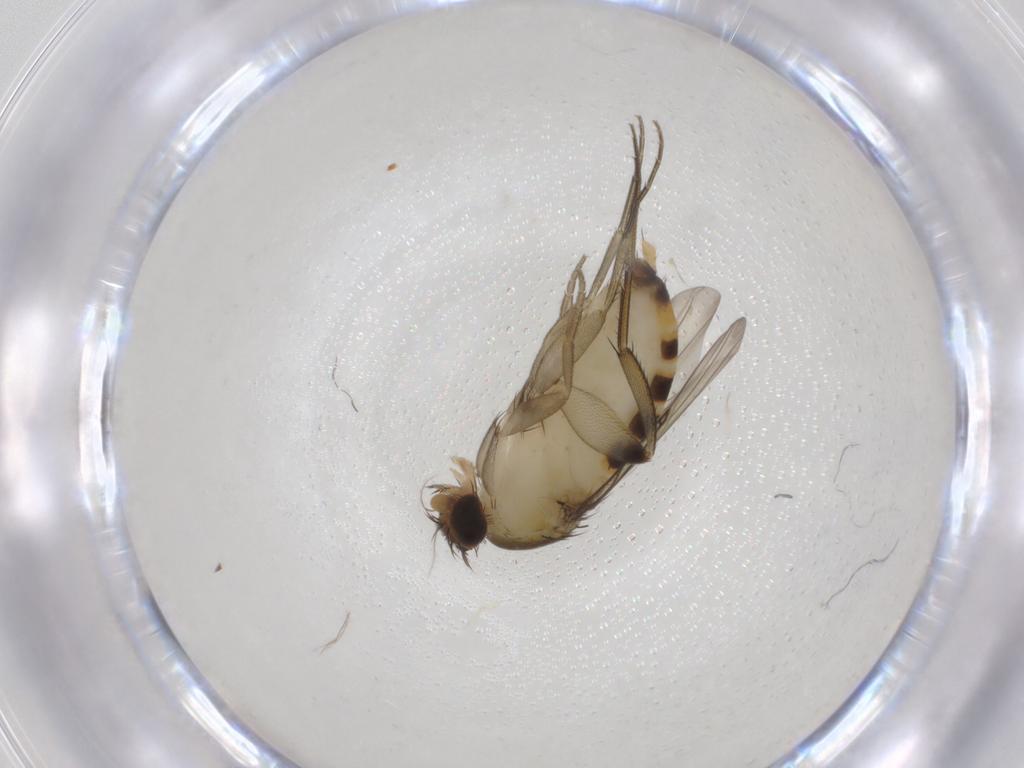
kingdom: Animalia
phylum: Arthropoda
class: Insecta
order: Diptera
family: Phoridae
